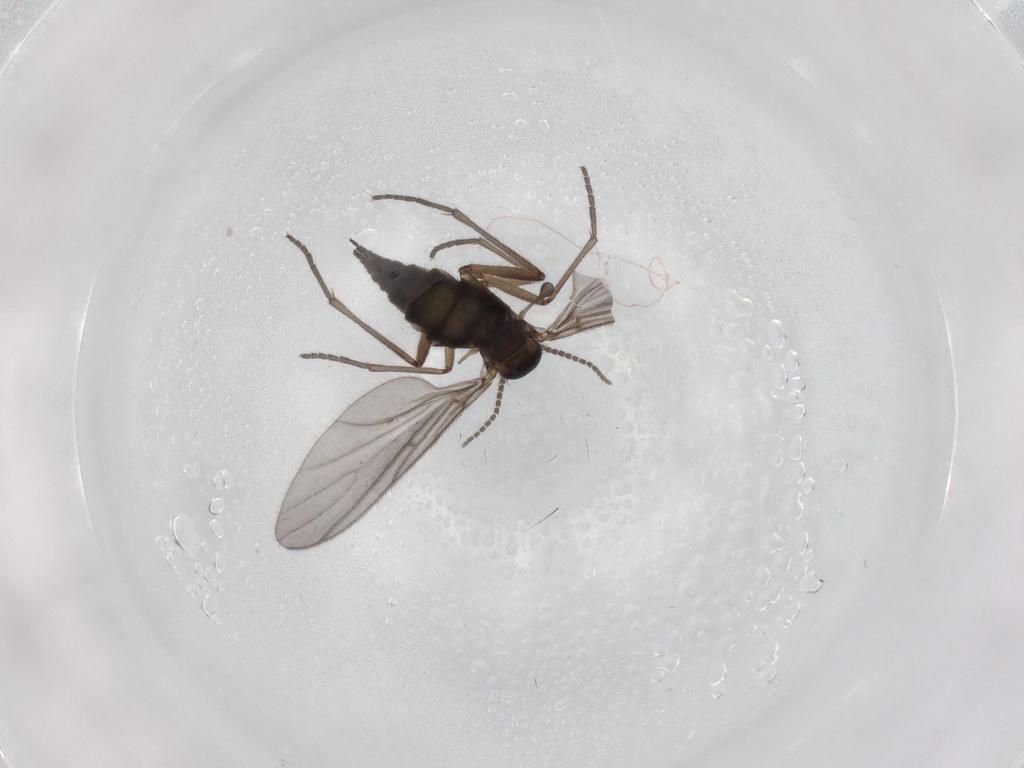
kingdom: Animalia
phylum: Arthropoda
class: Insecta
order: Diptera
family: Sciaridae
